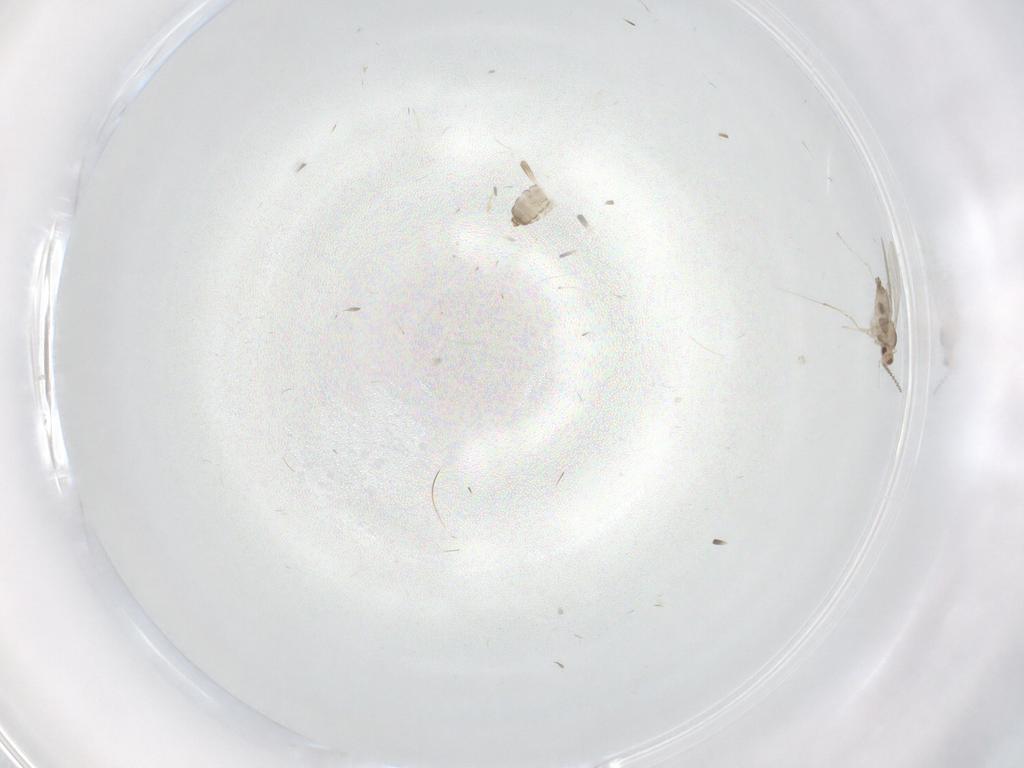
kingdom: Animalia
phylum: Arthropoda
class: Insecta
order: Diptera
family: Cecidomyiidae
